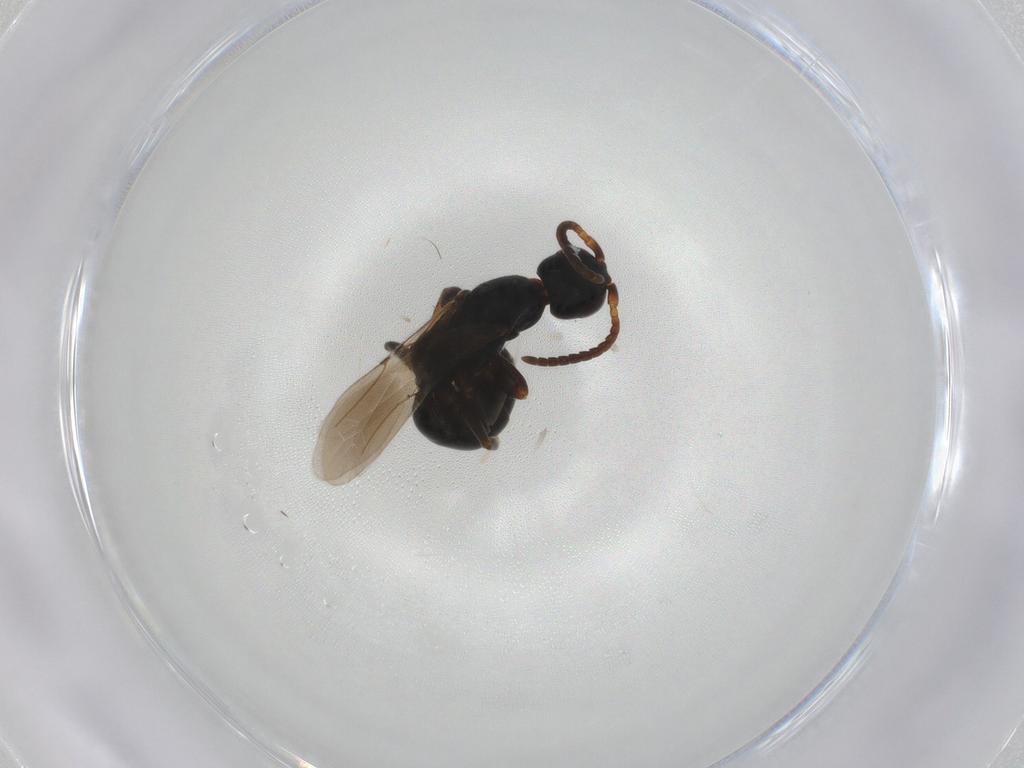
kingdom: Animalia
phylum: Arthropoda
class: Insecta
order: Hymenoptera
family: Bethylidae
